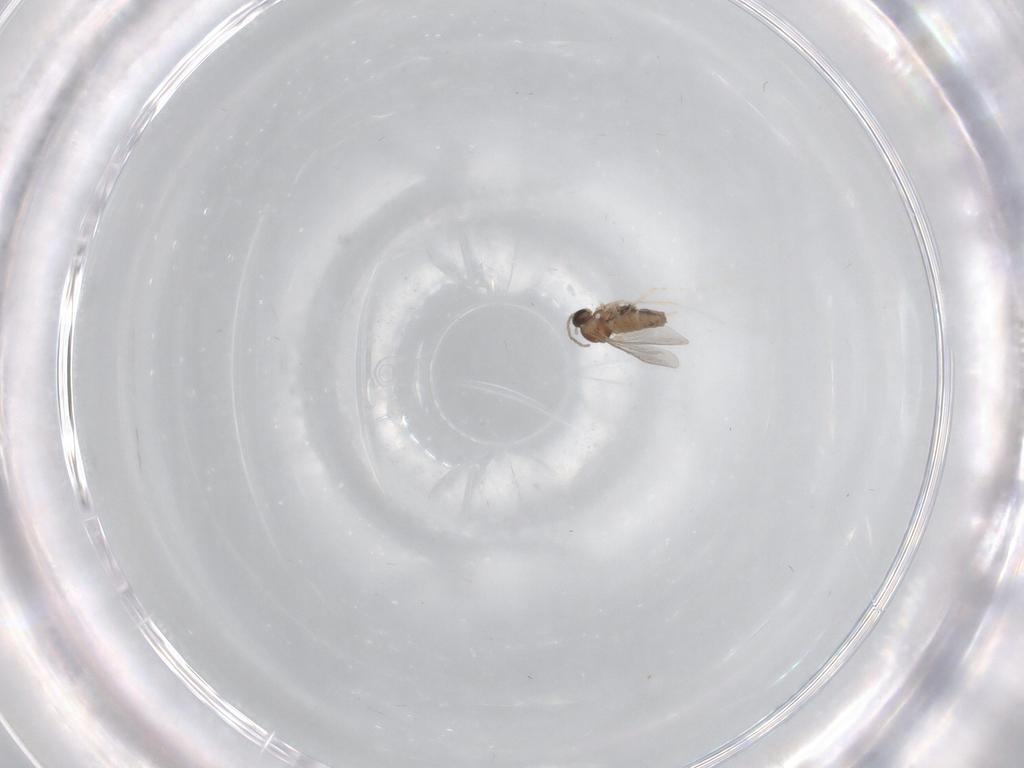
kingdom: Animalia
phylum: Arthropoda
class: Insecta
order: Diptera
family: Cecidomyiidae
